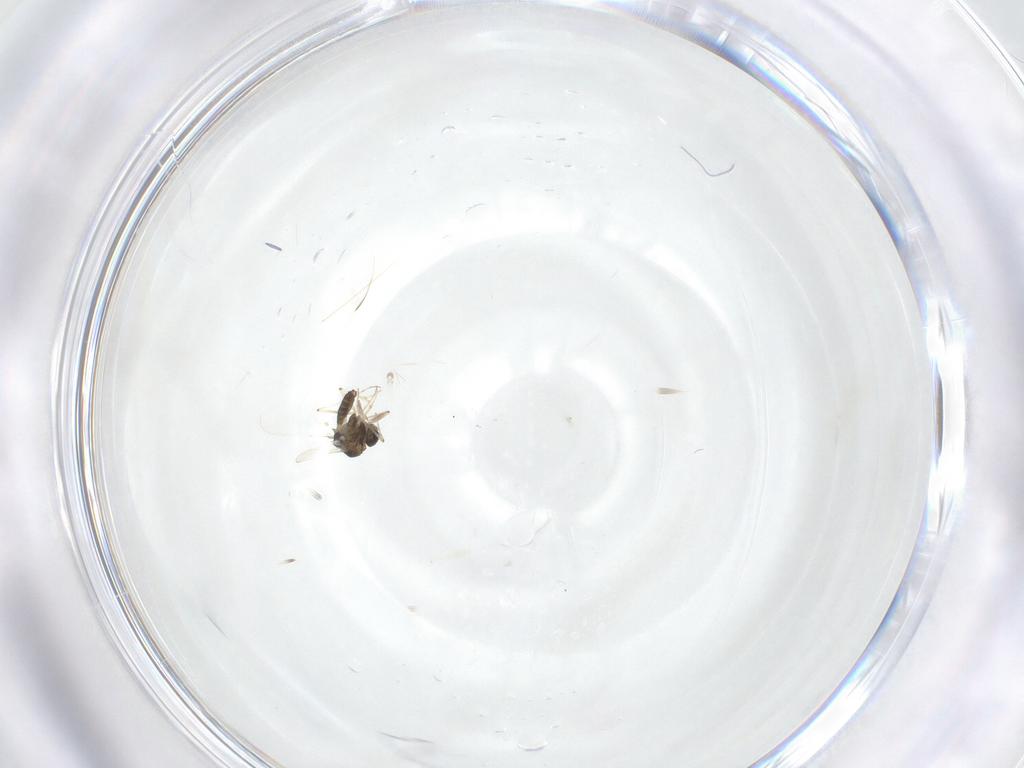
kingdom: Animalia
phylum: Arthropoda
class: Insecta
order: Diptera
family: Chironomidae
